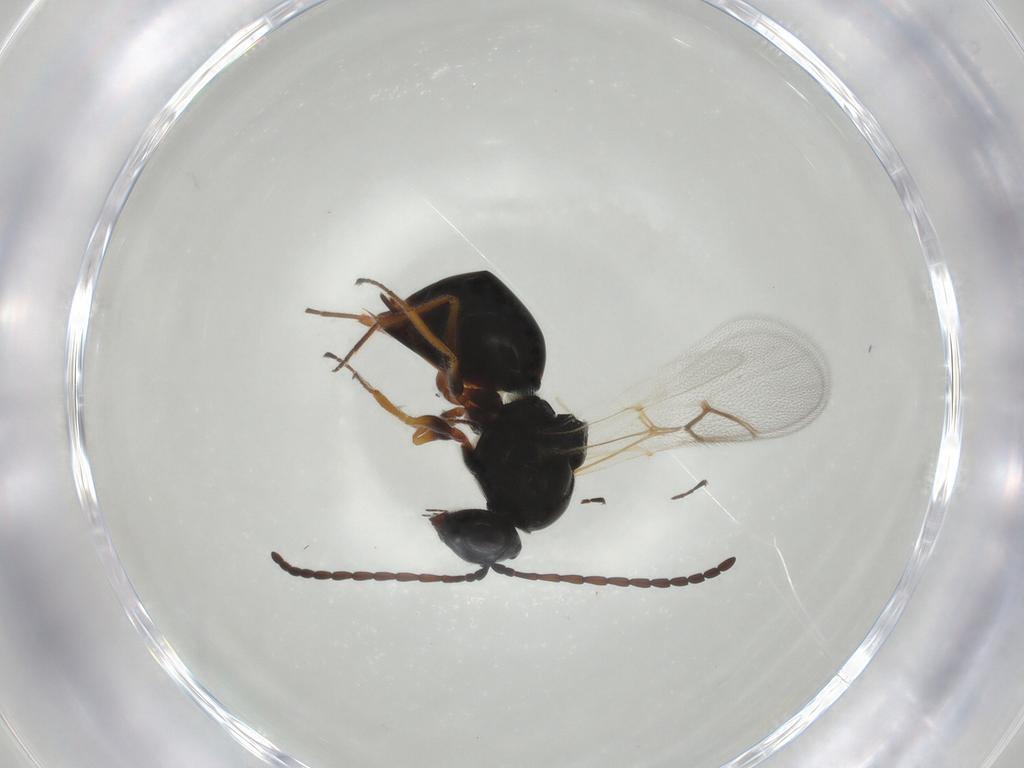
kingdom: Animalia
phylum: Arthropoda
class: Insecta
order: Hymenoptera
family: Figitidae
